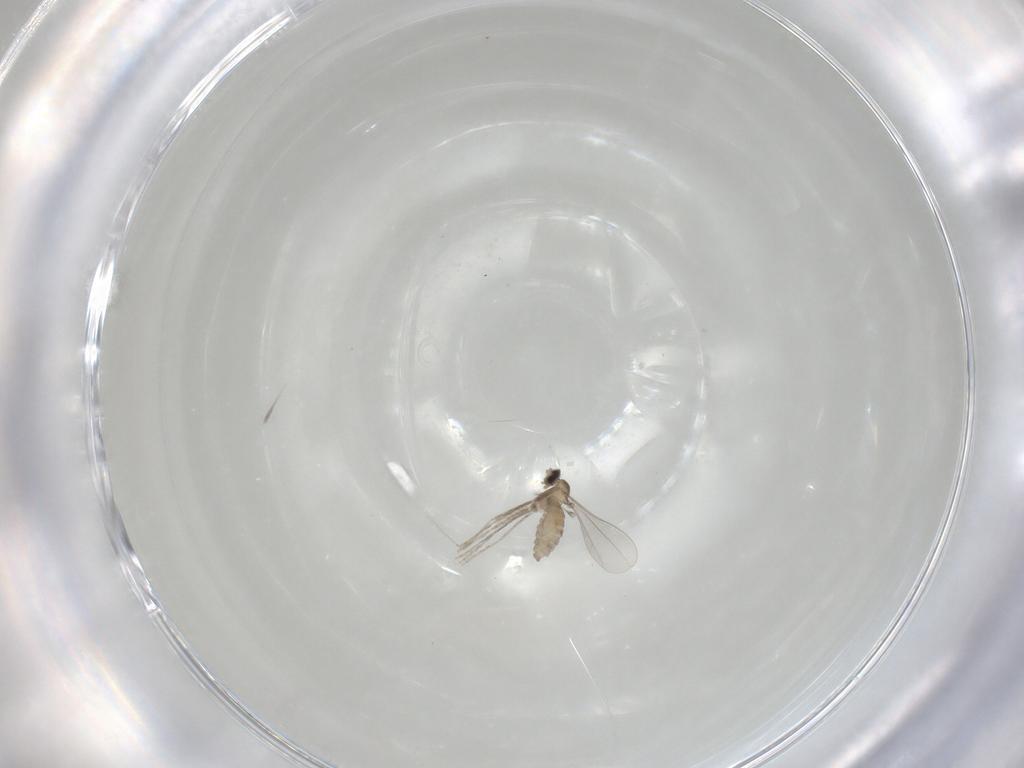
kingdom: Animalia
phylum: Arthropoda
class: Insecta
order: Diptera
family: Cecidomyiidae
